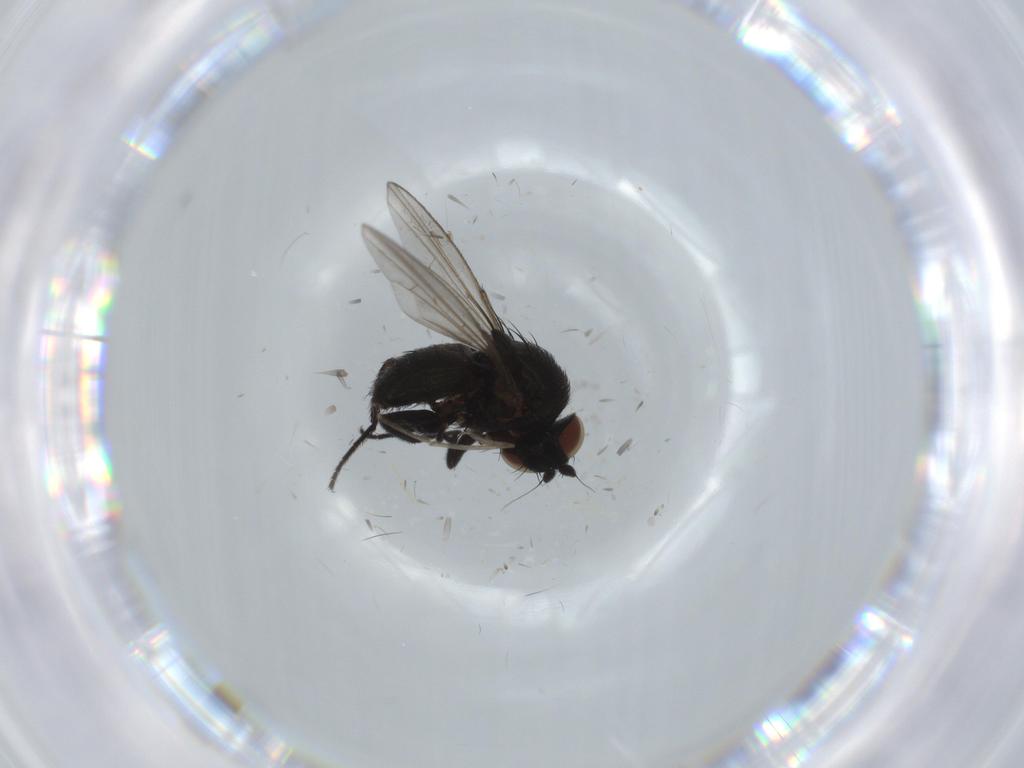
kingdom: Animalia
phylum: Arthropoda
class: Insecta
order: Diptera
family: Milichiidae
